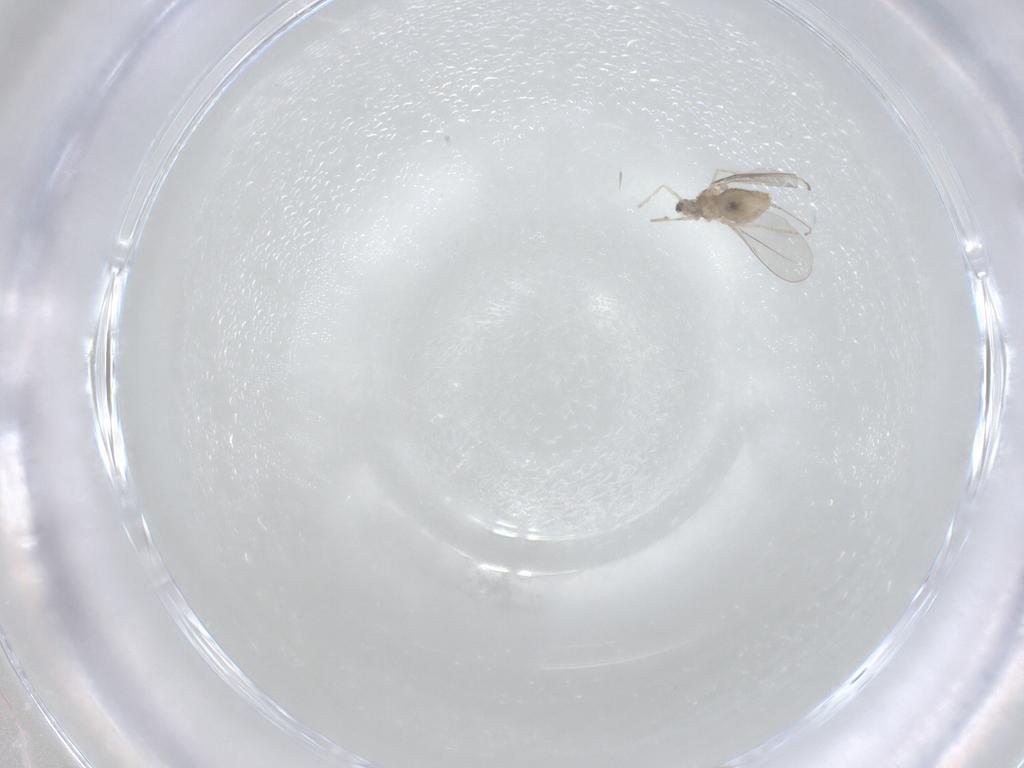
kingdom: Animalia
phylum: Arthropoda
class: Insecta
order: Diptera
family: Cecidomyiidae
